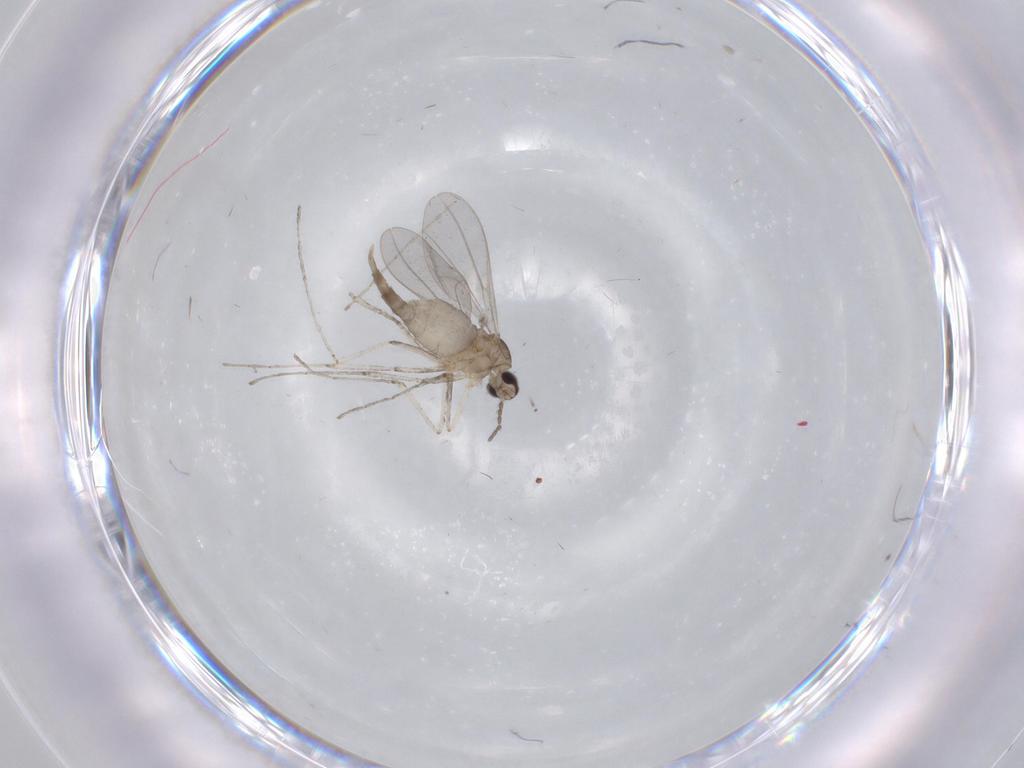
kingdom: Animalia
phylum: Arthropoda
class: Insecta
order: Diptera
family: Cecidomyiidae
